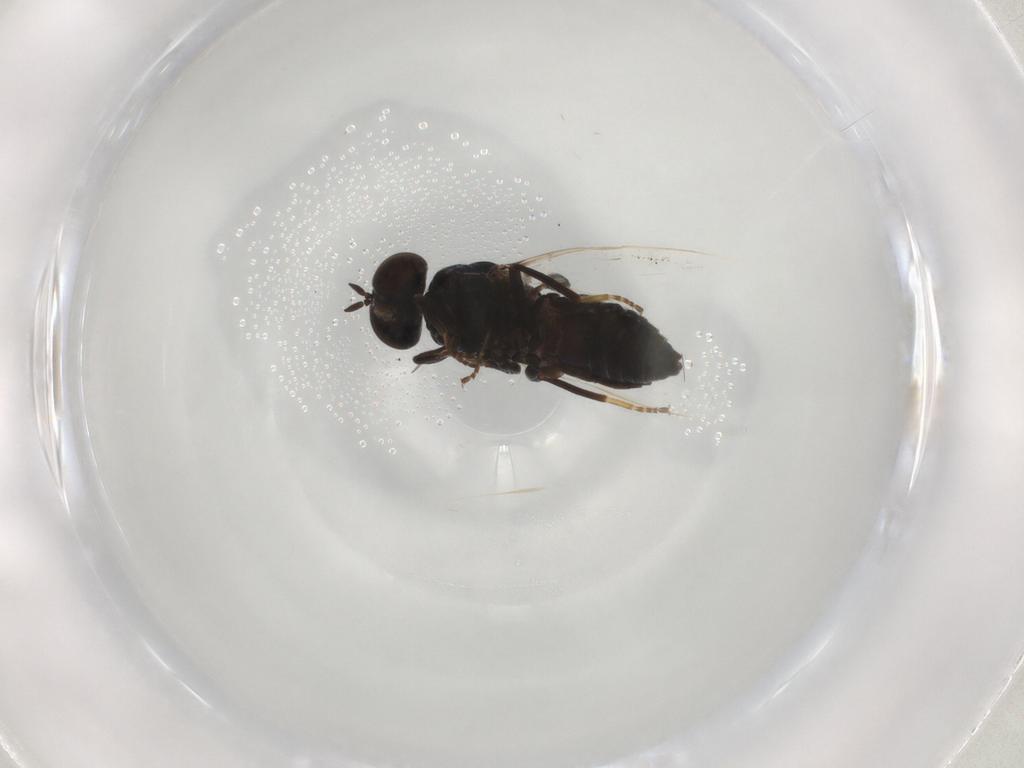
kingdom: Animalia
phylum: Arthropoda
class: Insecta
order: Diptera
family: Scenopinidae
